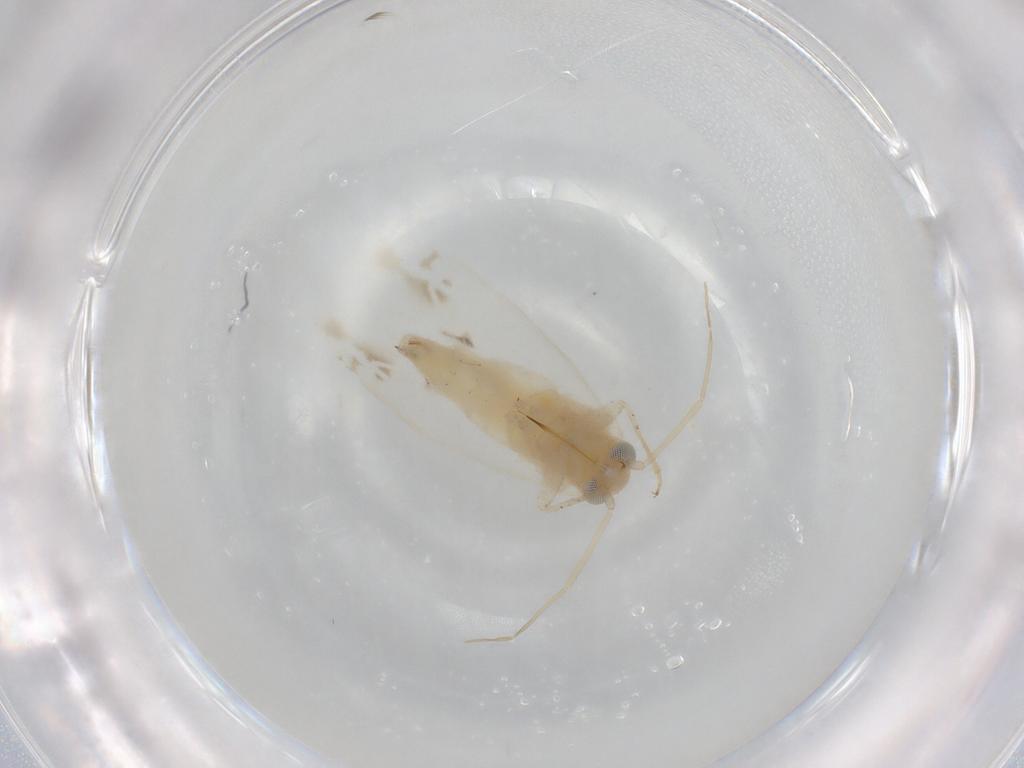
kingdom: Animalia
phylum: Arthropoda
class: Insecta
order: Hemiptera
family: Miridae
